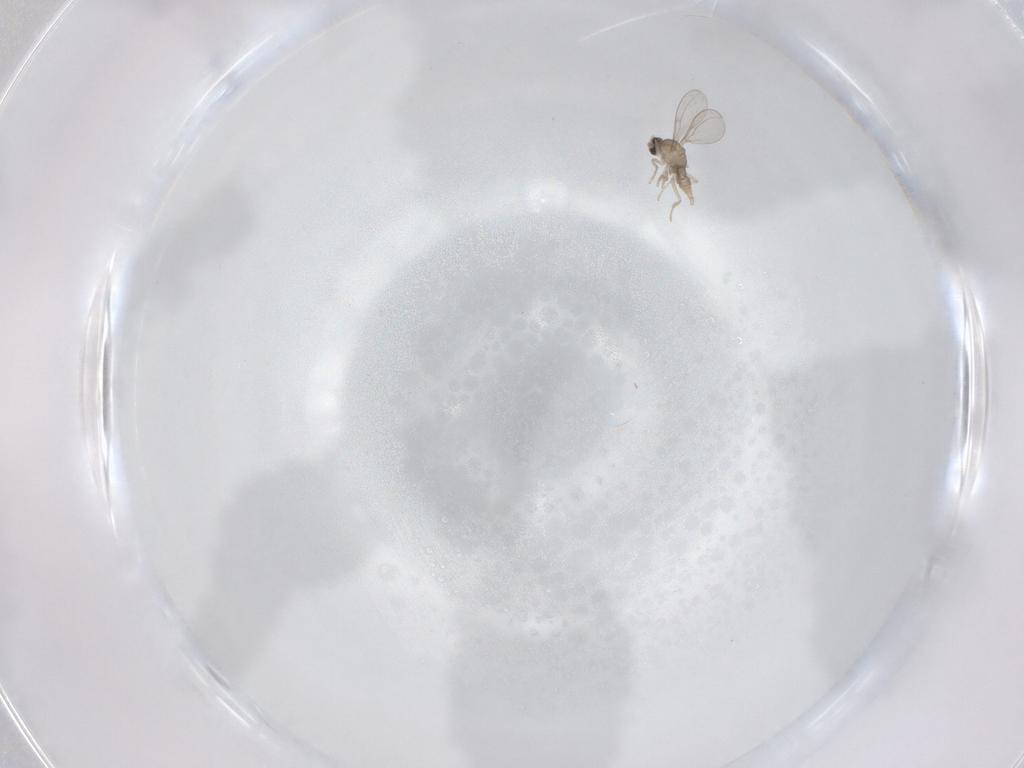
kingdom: Animalia
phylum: Arthropoda
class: Insecta
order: Diptera
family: Cecidomyiidae
